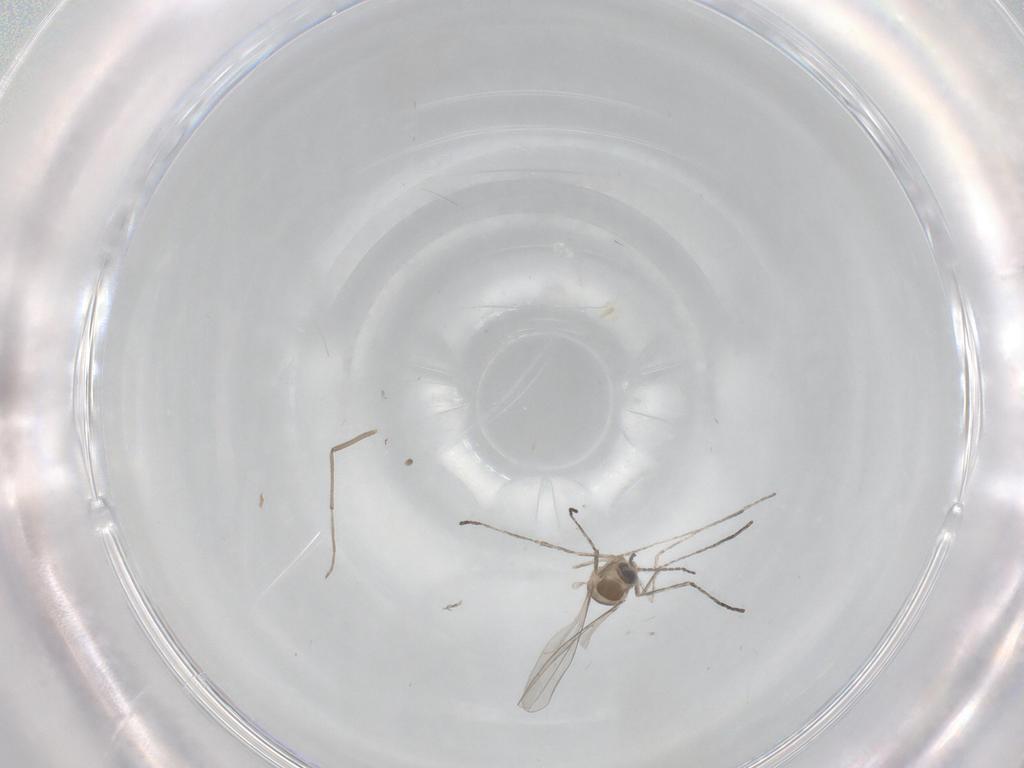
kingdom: Animalia
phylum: Arthropoda
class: Insecta
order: Diptera
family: Cecidomyiidae
